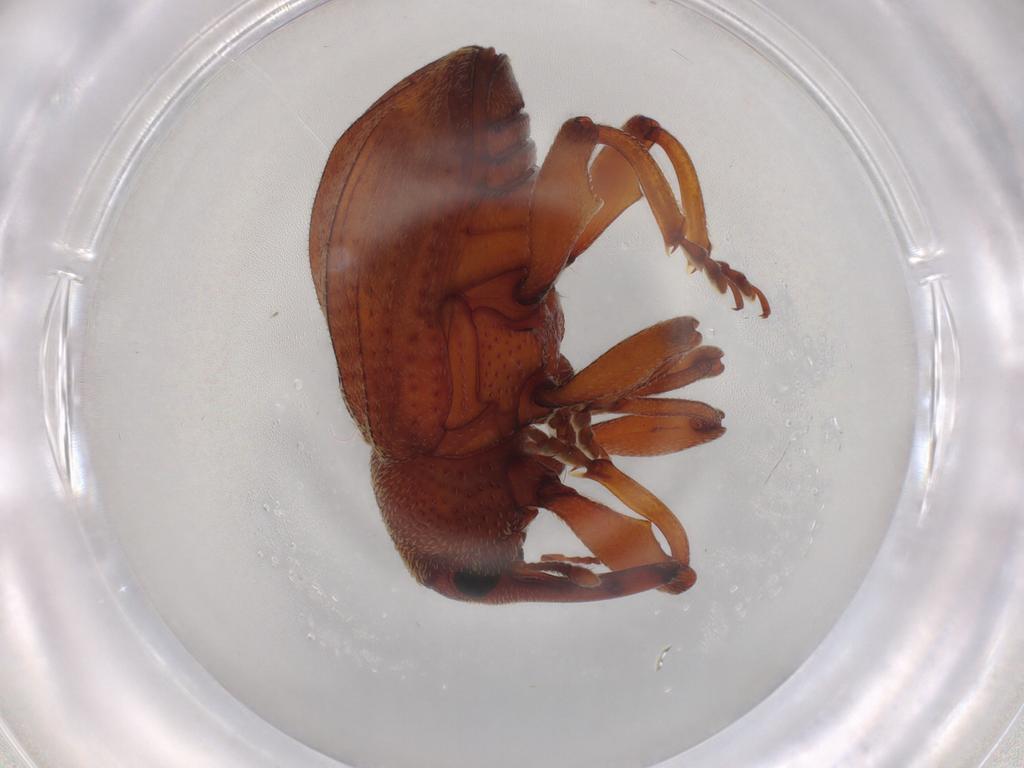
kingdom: Animalia
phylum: Arthropoda
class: Insecta
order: Coleoptera
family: Curculionidae
